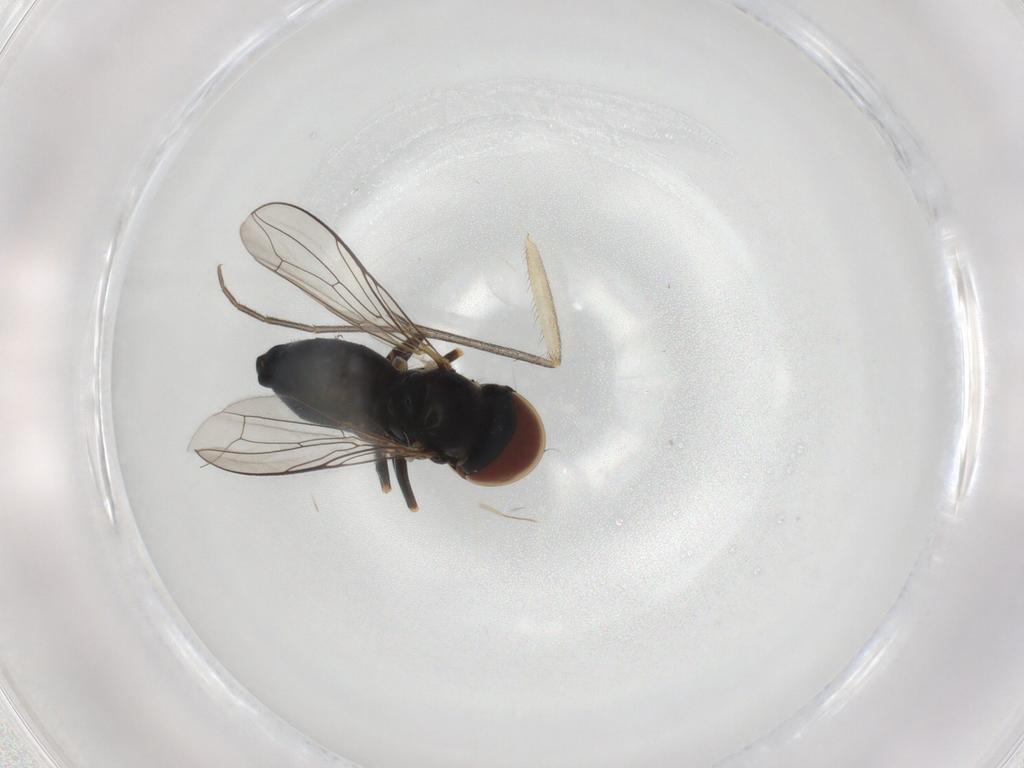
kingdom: Animalia
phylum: Arthropoda
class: Insecta
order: Diptera
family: Pipunculidae
